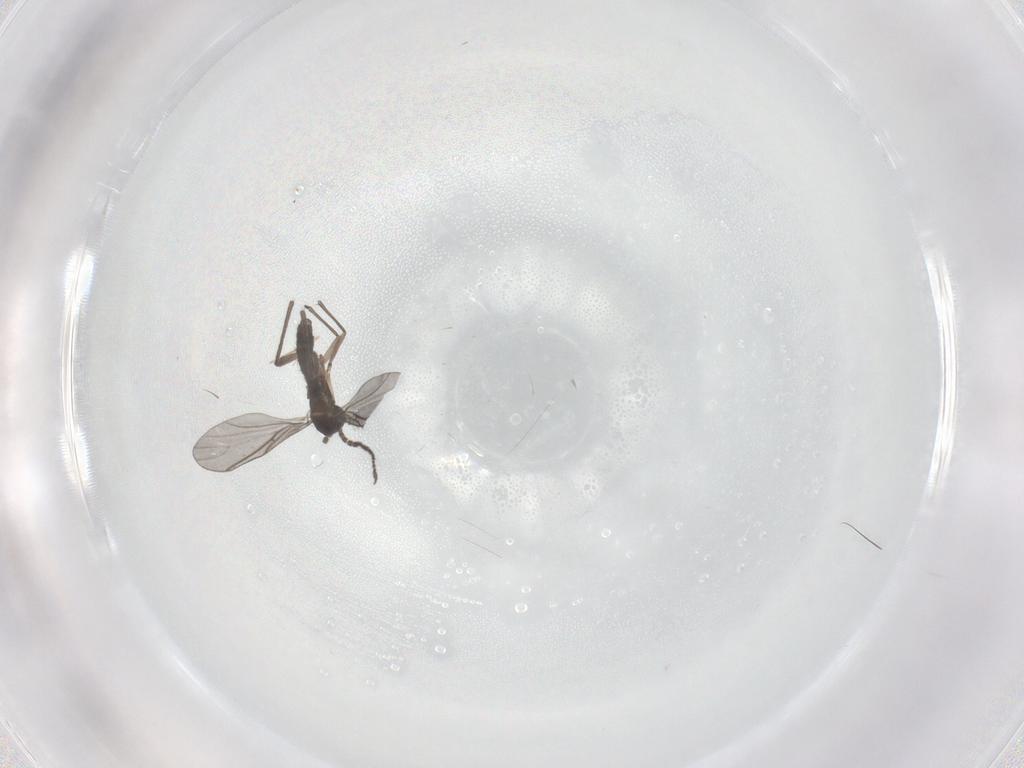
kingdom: Animalia
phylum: Arthropoda
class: Insecta
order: Diptera
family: Sciaridae
